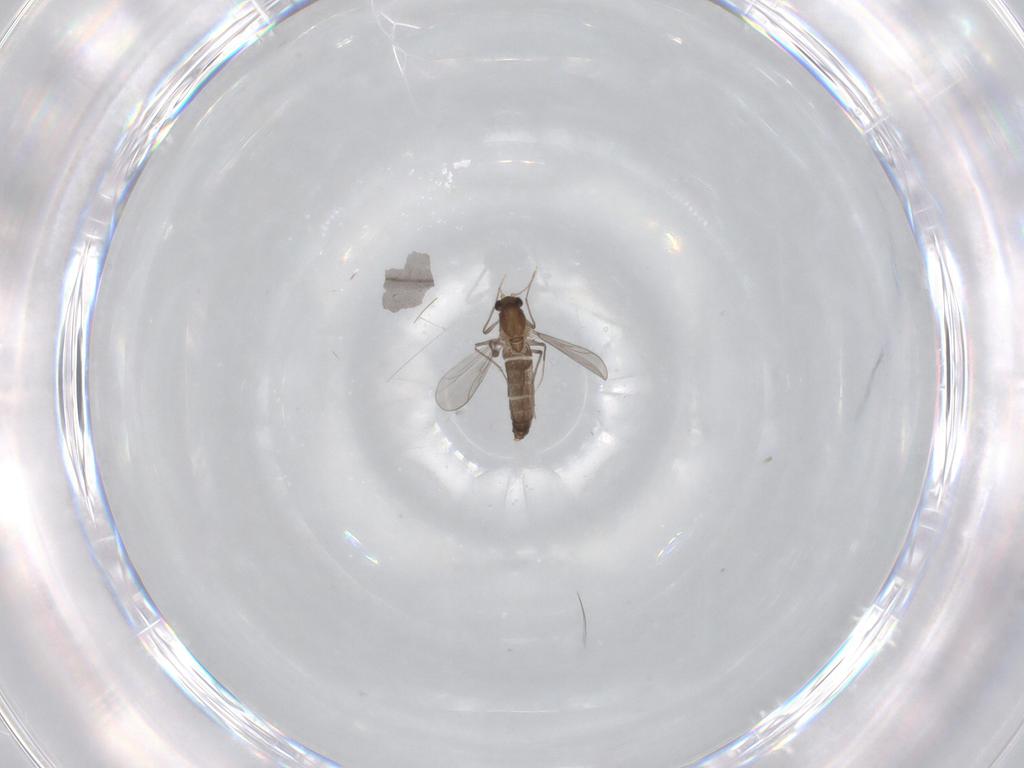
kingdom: Animalia
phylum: Arthropoda
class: Insecta
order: Diptera
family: Chironomidae
